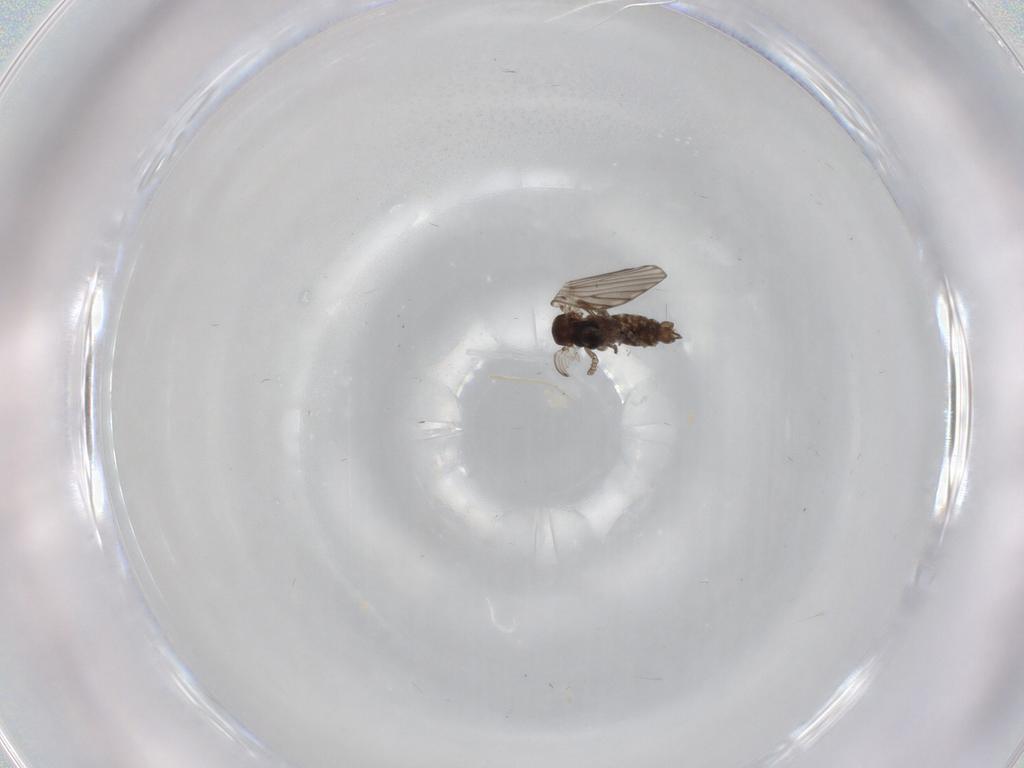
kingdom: Animalia
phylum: Arthropoda
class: Insecta
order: Diptera
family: Psychodidae
